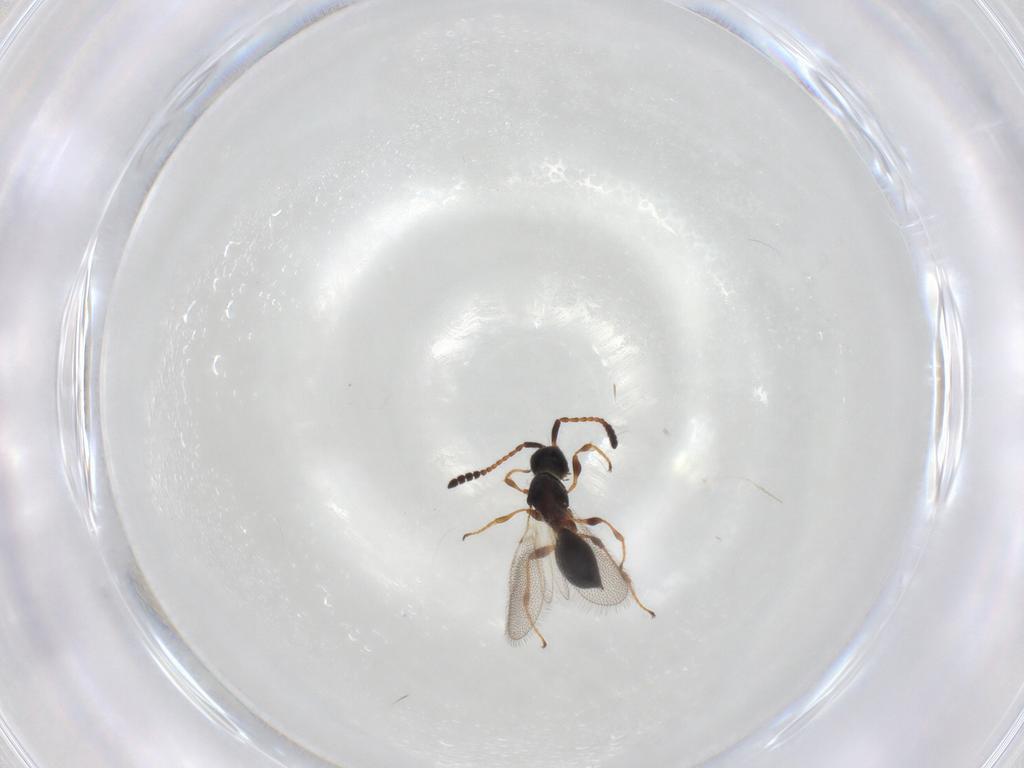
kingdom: Animalia
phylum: Arthropoda
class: Insecta
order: Hymenoptera
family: Diapriidae
